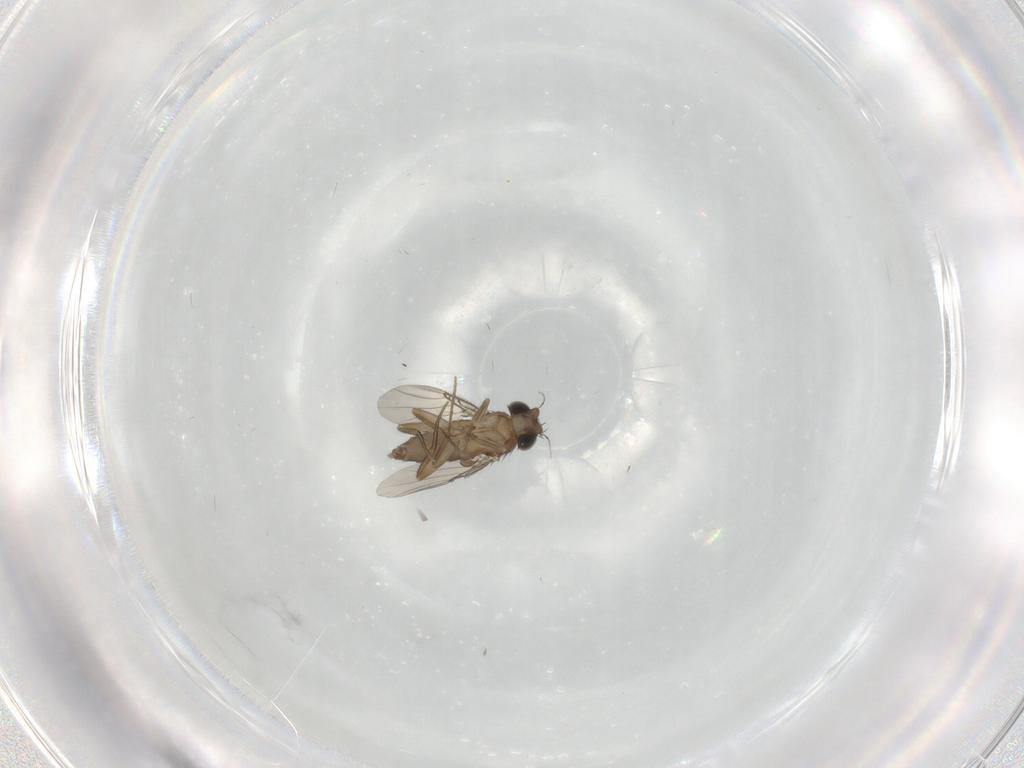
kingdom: Animalia
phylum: Arthropoda
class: Insecta
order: Diptera
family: Phoridae
